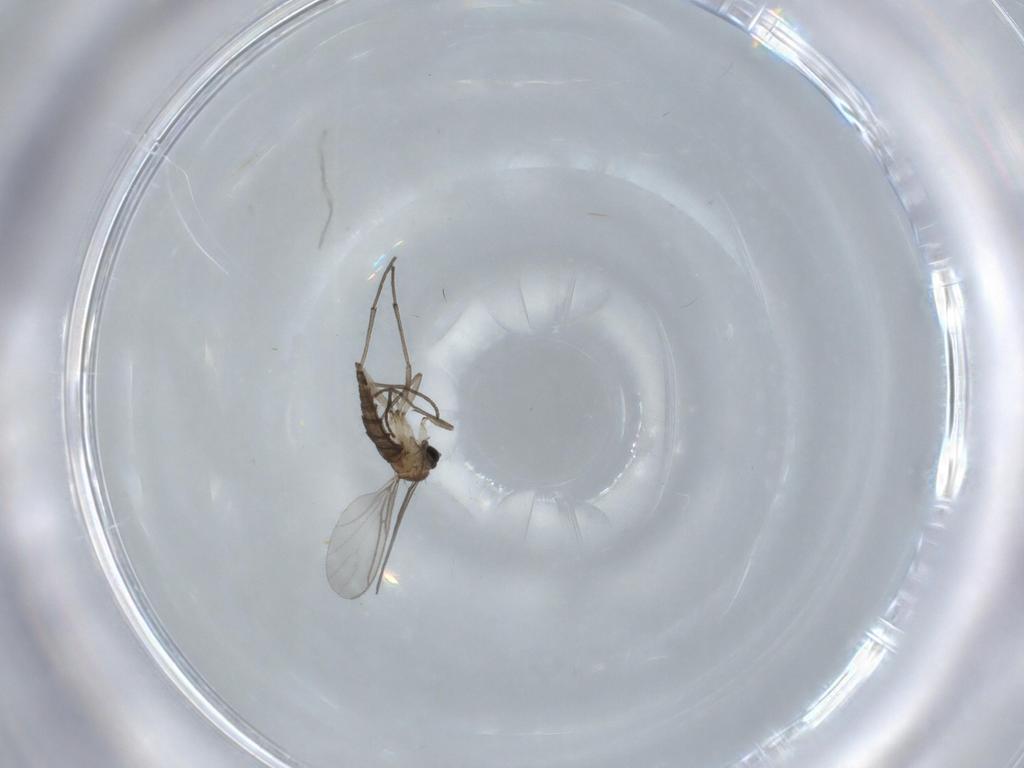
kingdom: Animalia
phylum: Arthropoda
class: Insecta
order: Diptera
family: Sciaridae
